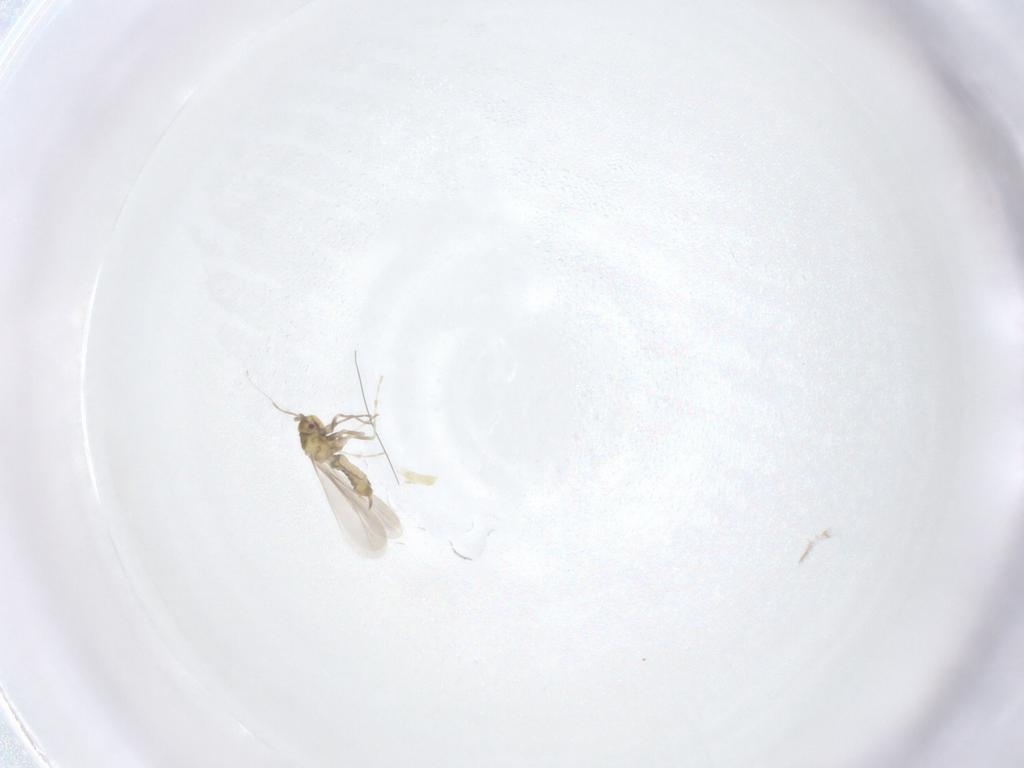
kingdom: Animalia
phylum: Arthropoda
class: Insecta
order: Hemiptera
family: Aleyrodidae
